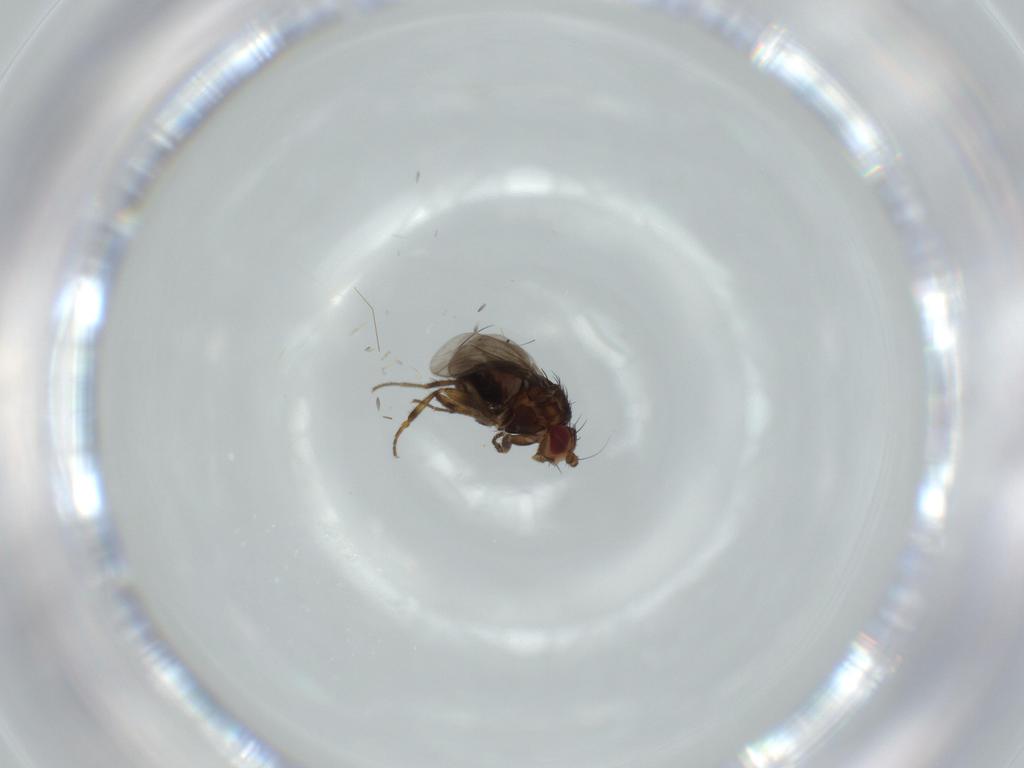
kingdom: Animalia
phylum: Arthropoda
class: Insecta
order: Diptera
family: Sphaeroceridae
